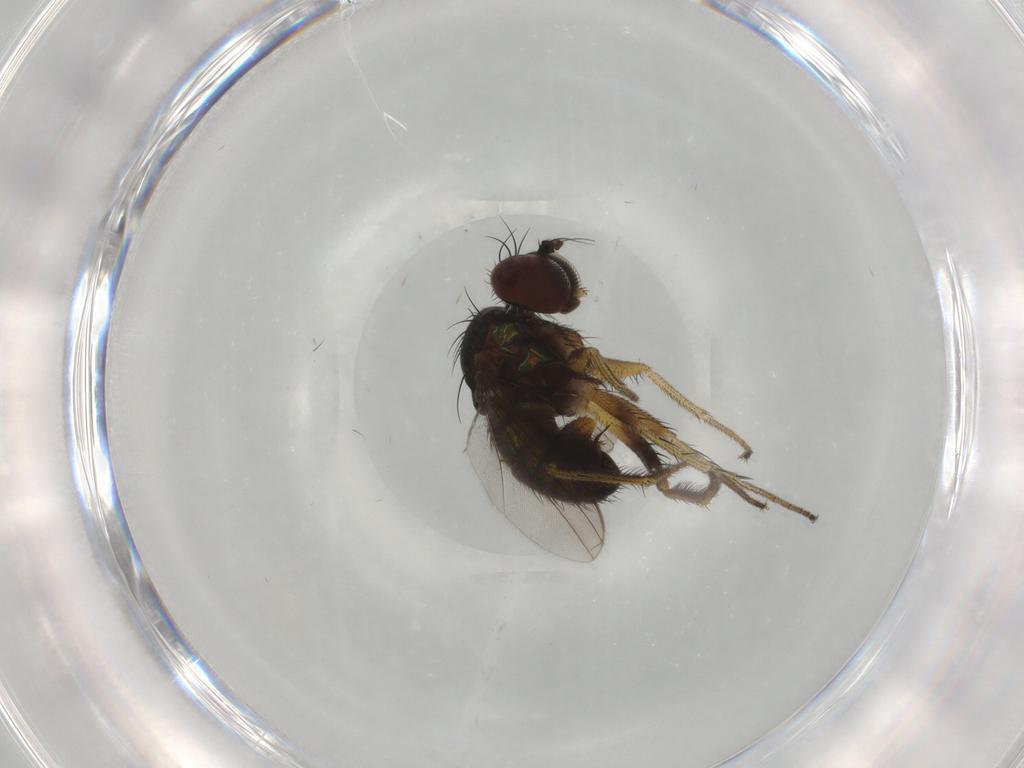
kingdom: Animalia
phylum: Arthropoda
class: Insecta
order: Diptera
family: Dolichopodidae
